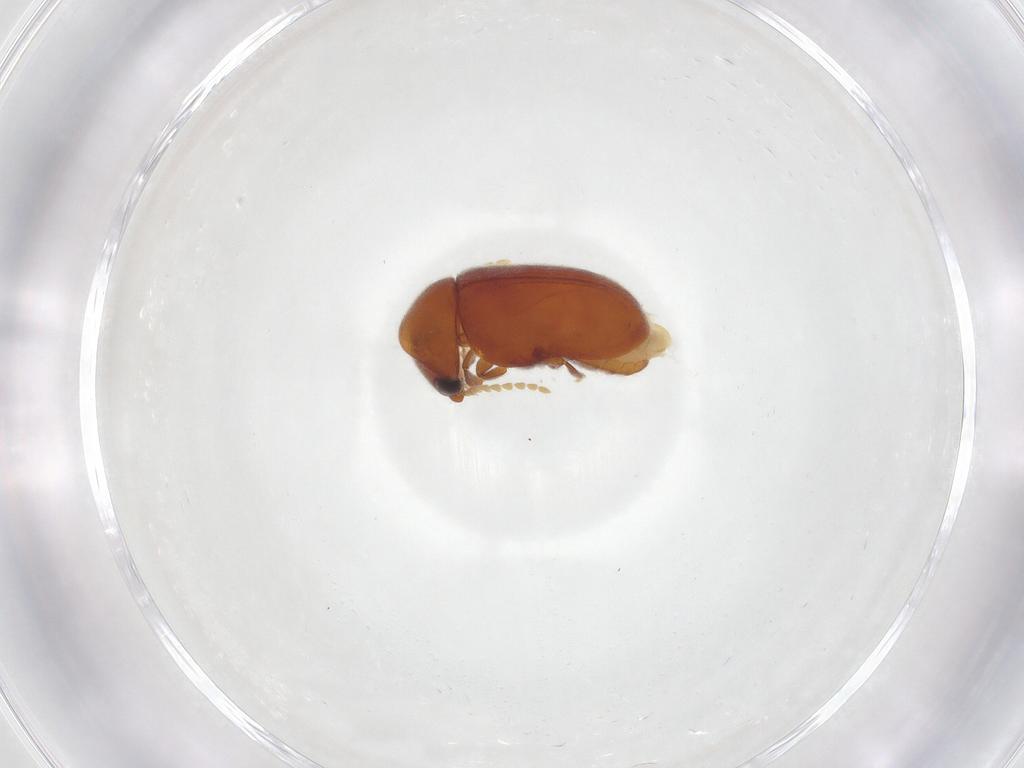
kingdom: Animalia
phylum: Arthropoda
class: Insecta
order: Coleoptera
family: Ptinidae
